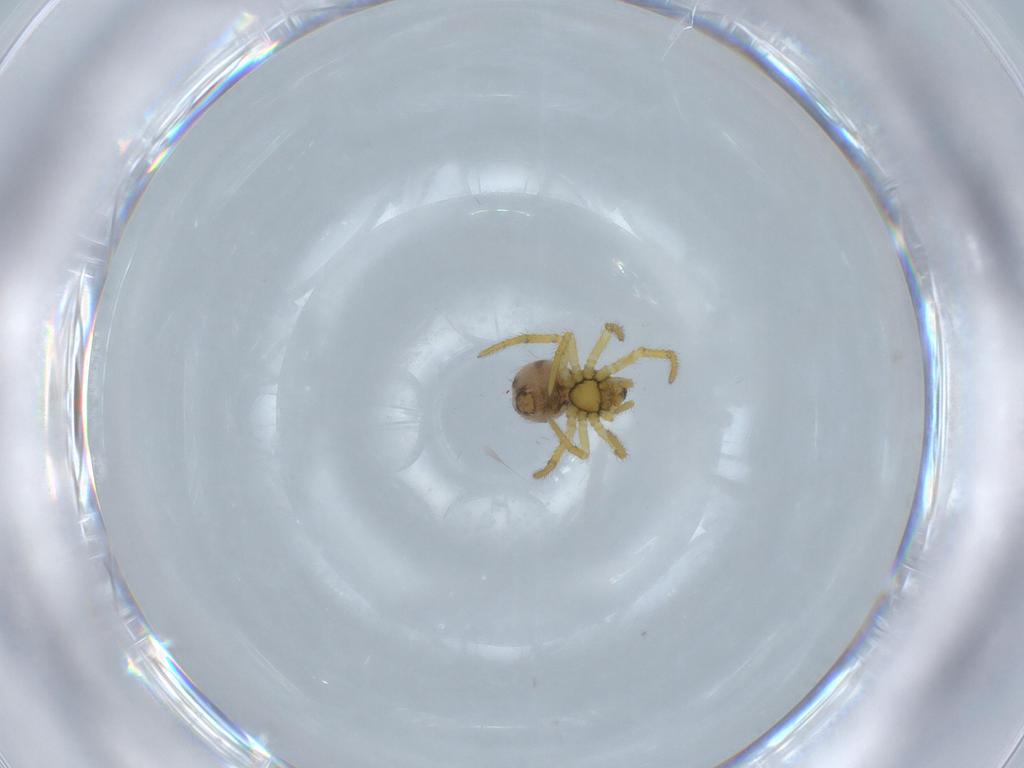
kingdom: Animalia
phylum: Arthropoda
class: Arachnida
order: Araneae
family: Theridiidae
